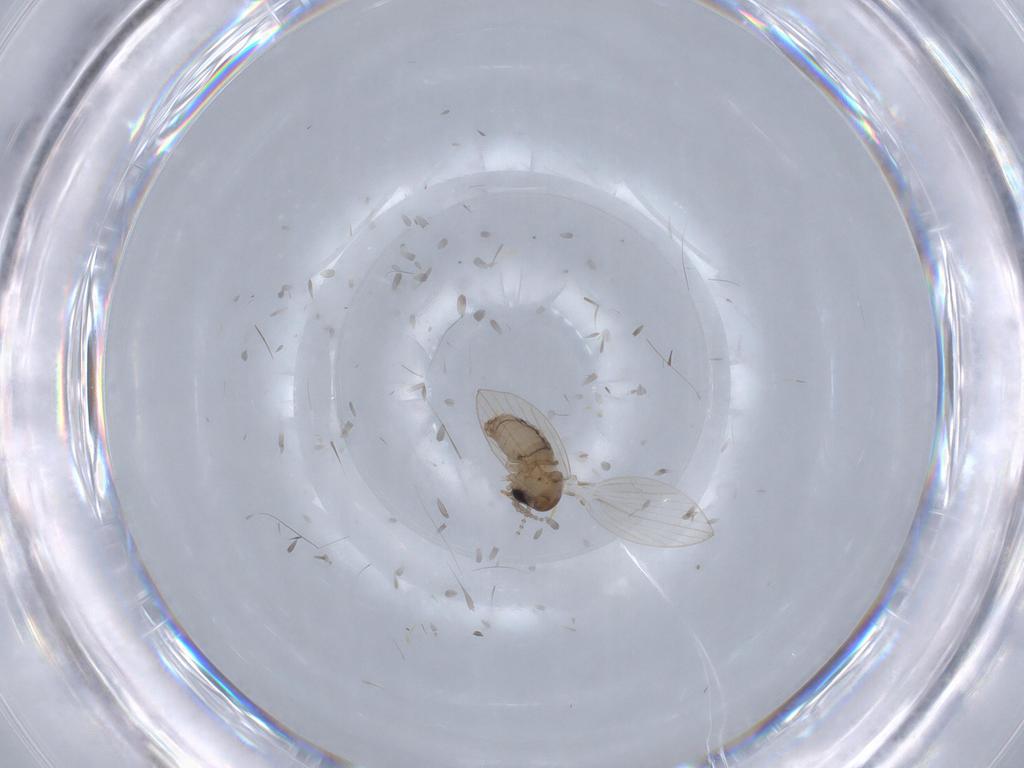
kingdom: Animalia
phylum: Arthropoda
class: Insecta
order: Diptera
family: Psychodidae
